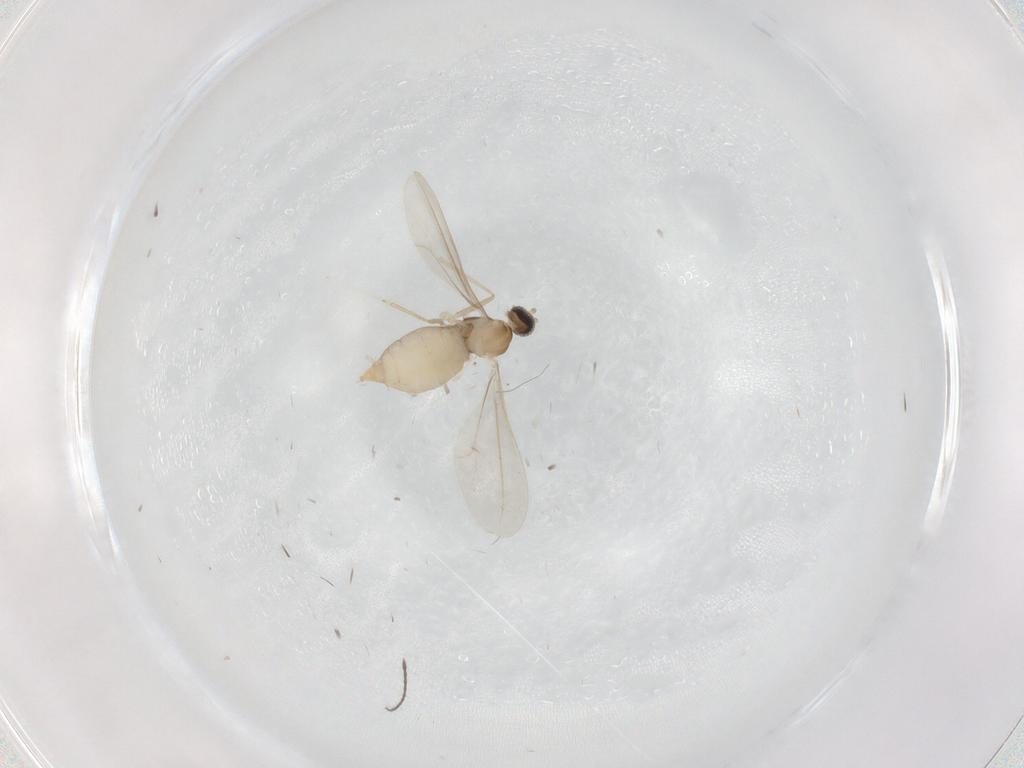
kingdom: Animalia
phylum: Arthropoda
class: Insecta
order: Diptera
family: Cecidomyiidae
